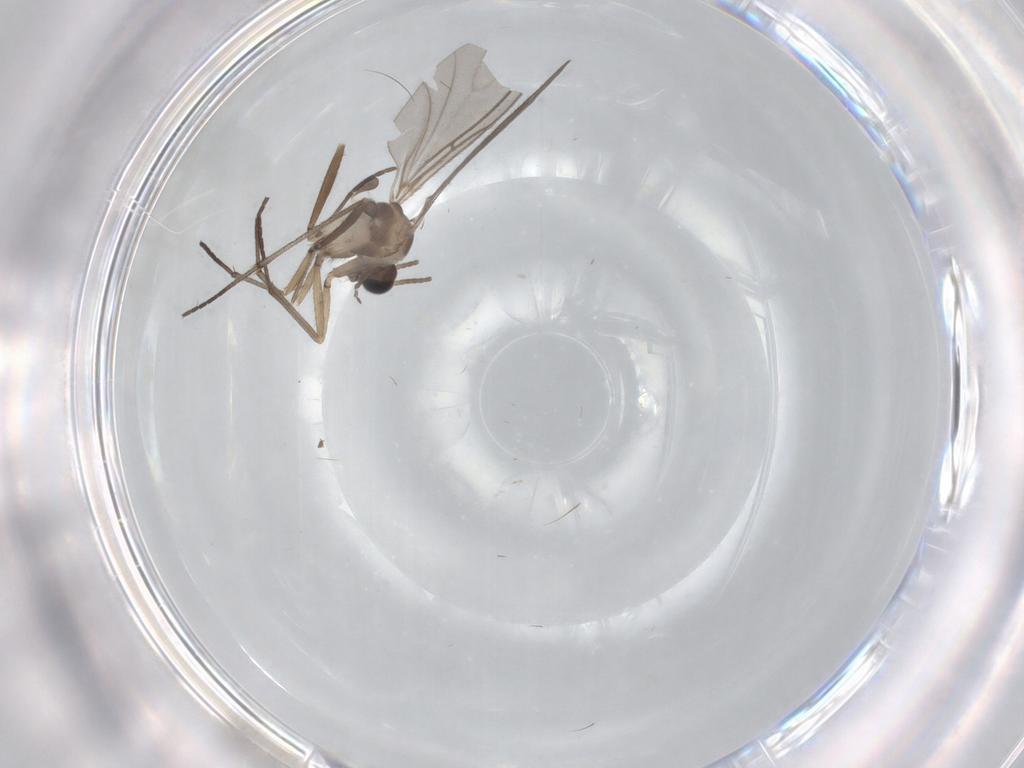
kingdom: Animalia
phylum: Arthropoda
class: Insecta
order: Diptera
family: Sciaridae
